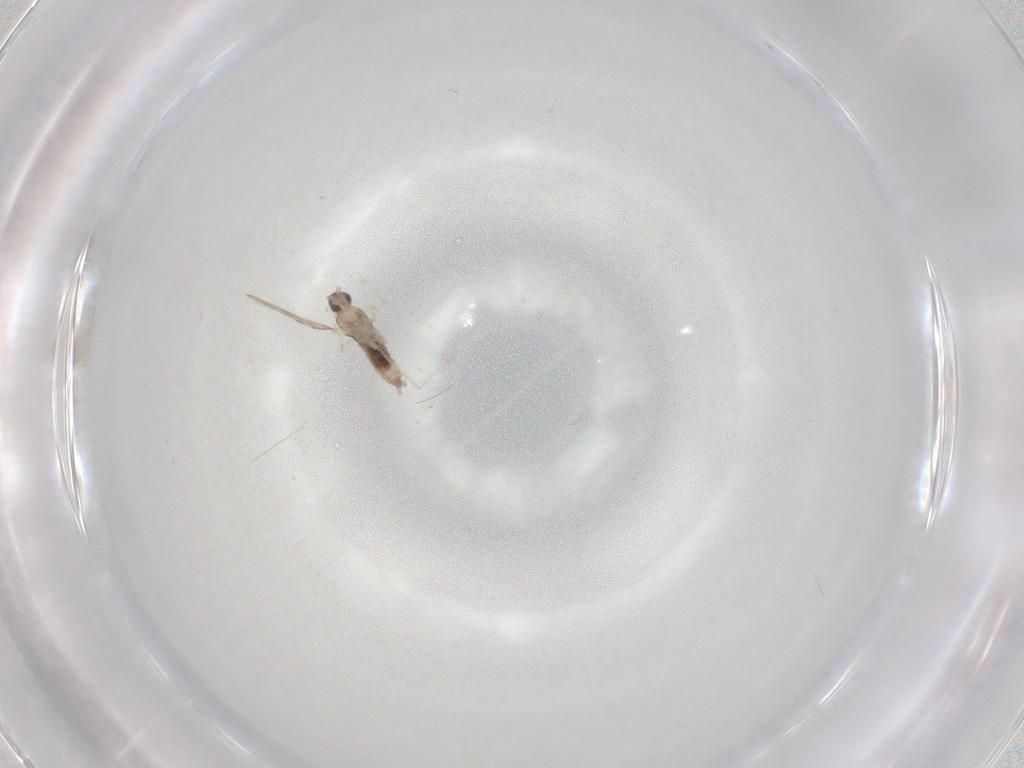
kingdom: Animalia
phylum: Arthropoda
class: Insecta
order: Diptera
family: Cecidomyiidae
